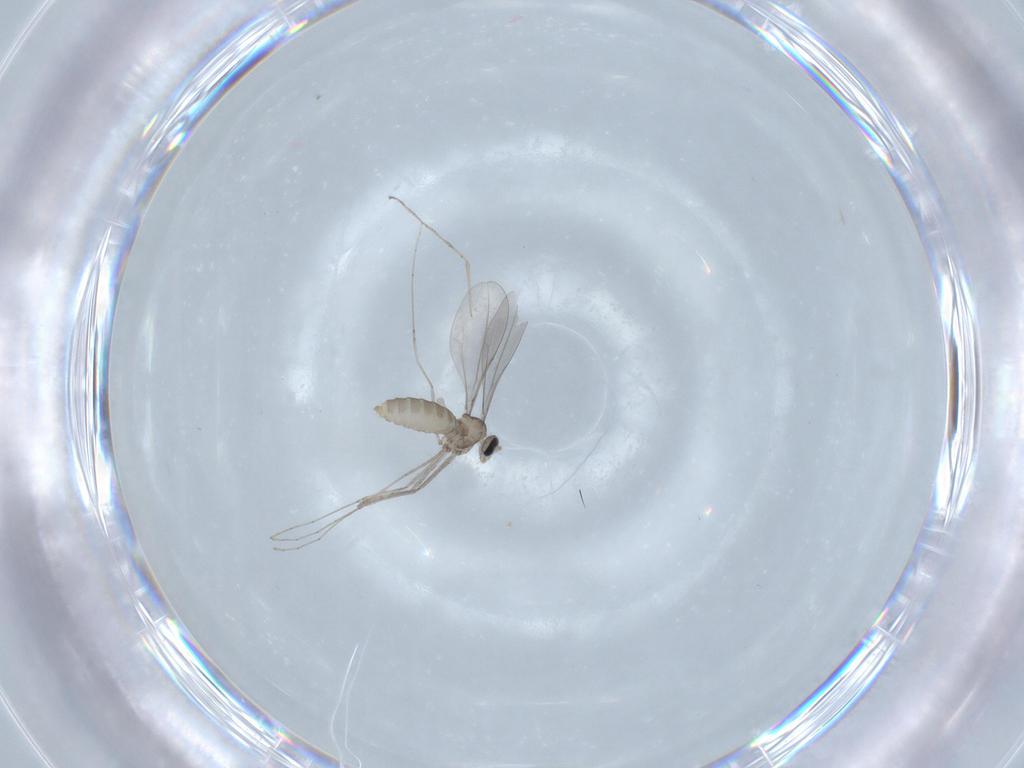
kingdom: Animalia
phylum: Arthropoda
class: Insecta
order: Diptera
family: Cecidomyiidae
